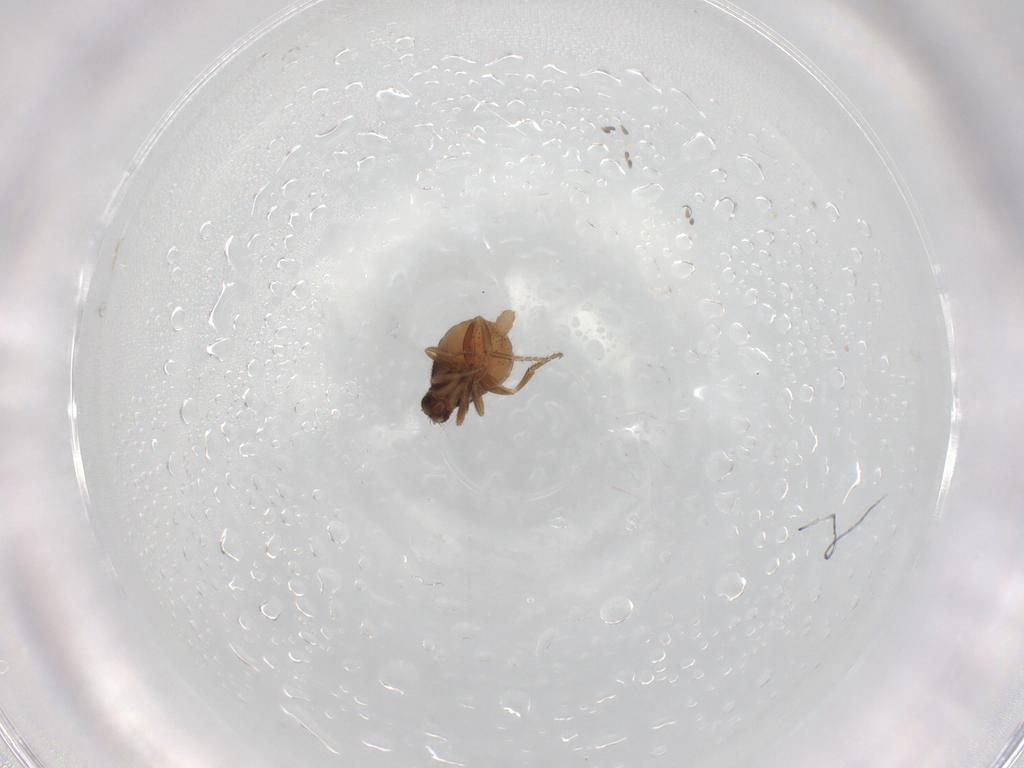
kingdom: Animalia
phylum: Arthropoda
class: Insecta
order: Diptera
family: Phoridae
